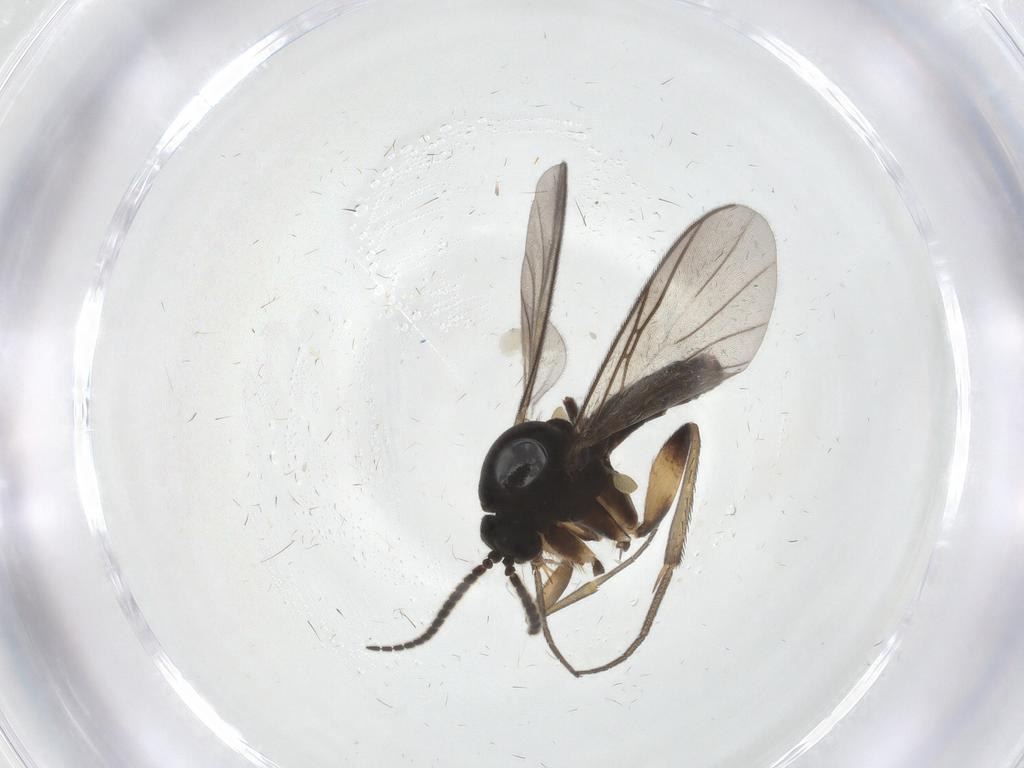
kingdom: Animalia
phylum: Arthropoda
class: Insecta
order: Diptera
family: Mycetophilidae
